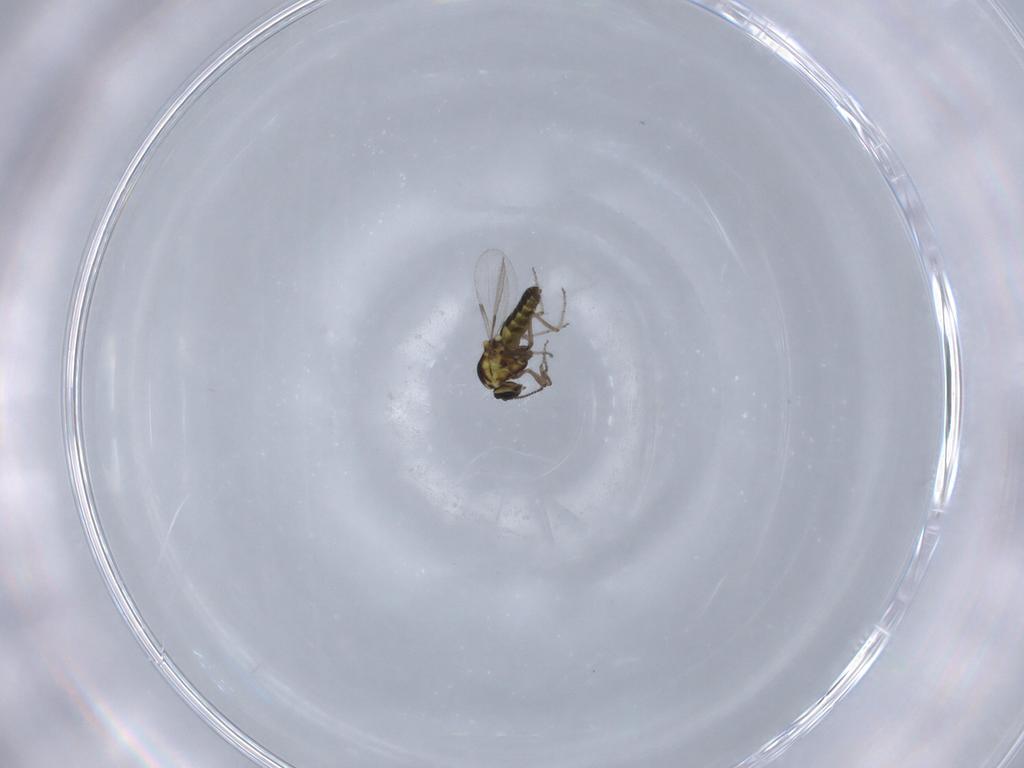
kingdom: Animalia
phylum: Arthropoda
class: Insecta
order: Diptera
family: Ceratopogonidae
